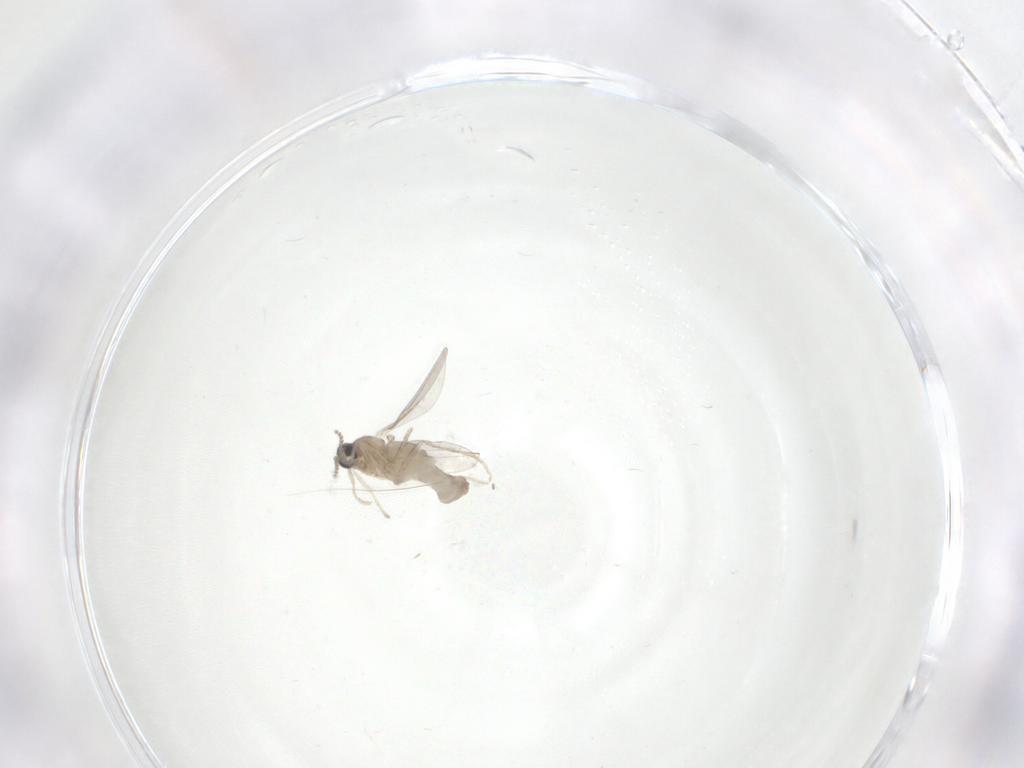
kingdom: Animalia
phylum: Arthropoda
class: Insecta
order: Diptera
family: Cecidomyiidae
